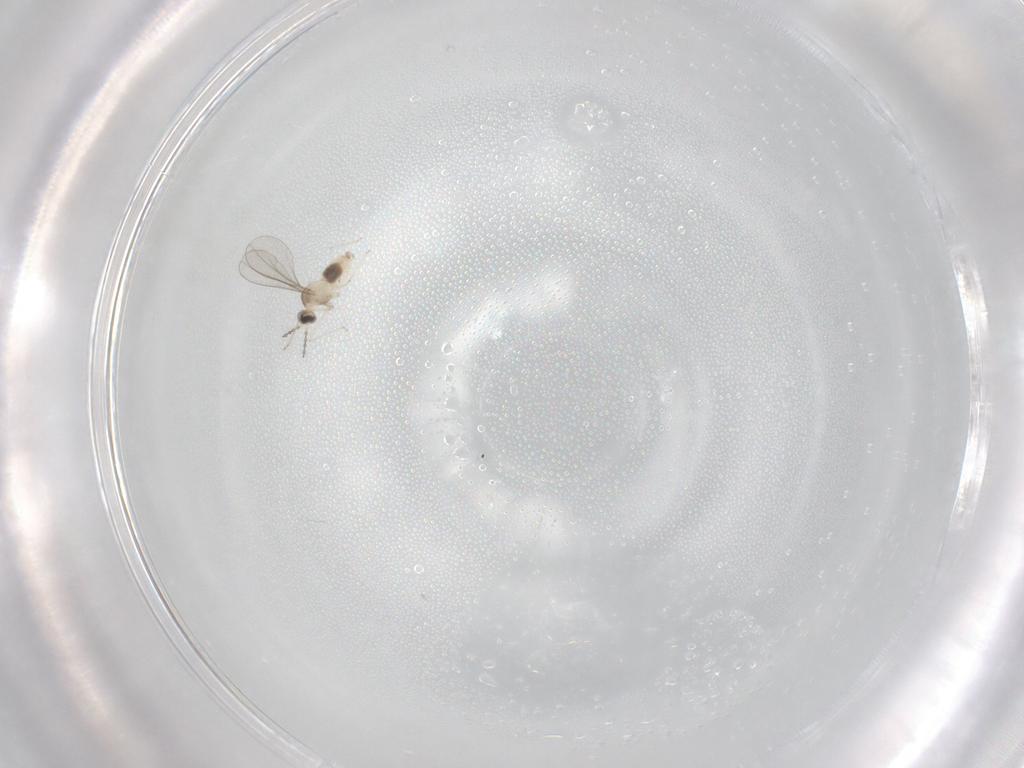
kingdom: Animalia
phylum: Arthropoda
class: Insecta
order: Diptera
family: Cecidomyiidae
